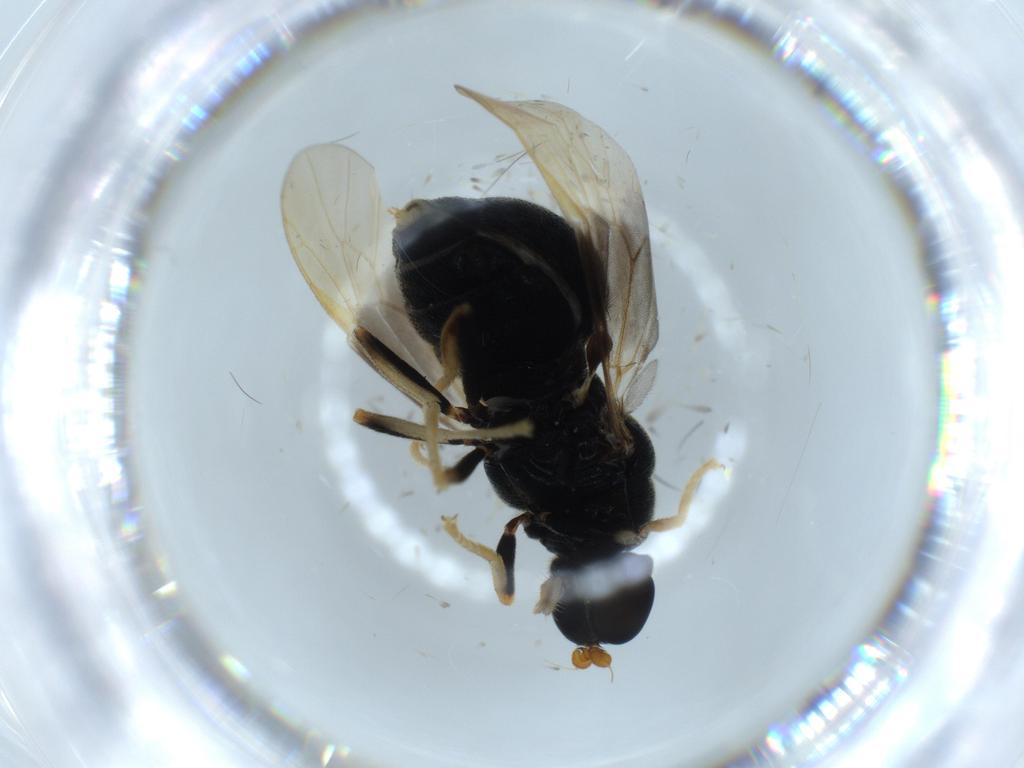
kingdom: Animalia
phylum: Arthropoda
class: Insecta
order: Diptera
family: Stratiomyidae
